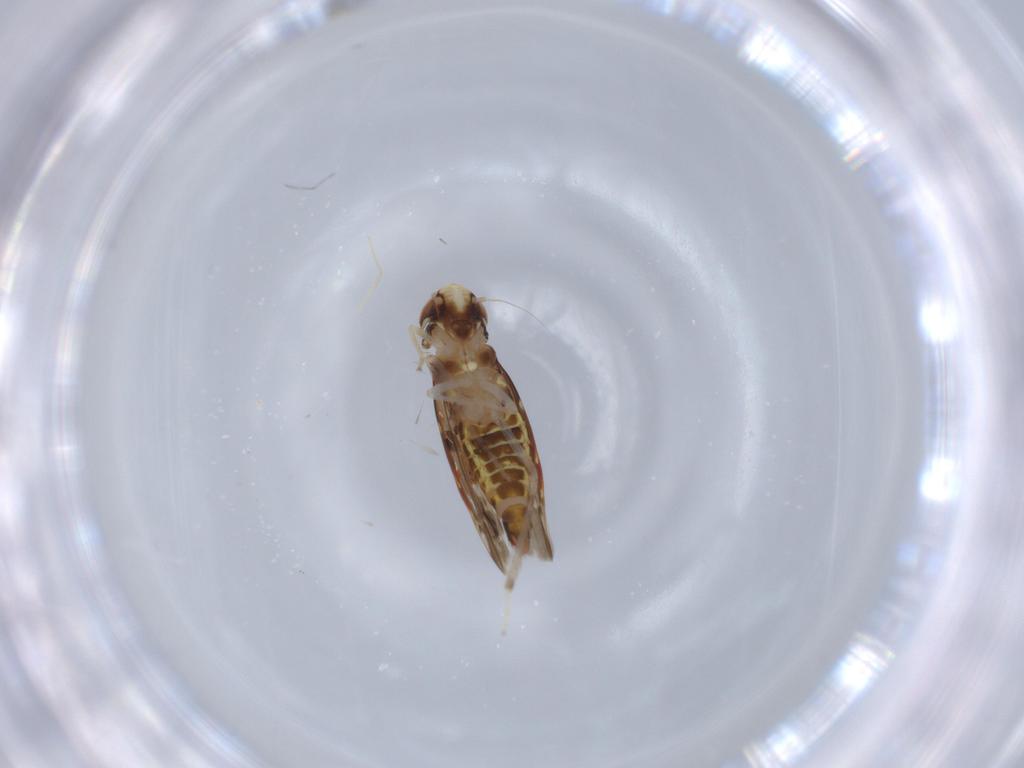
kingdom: Animalia
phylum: Arthropoda
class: Insecta
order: Hemiptera
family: Cicadellidae
